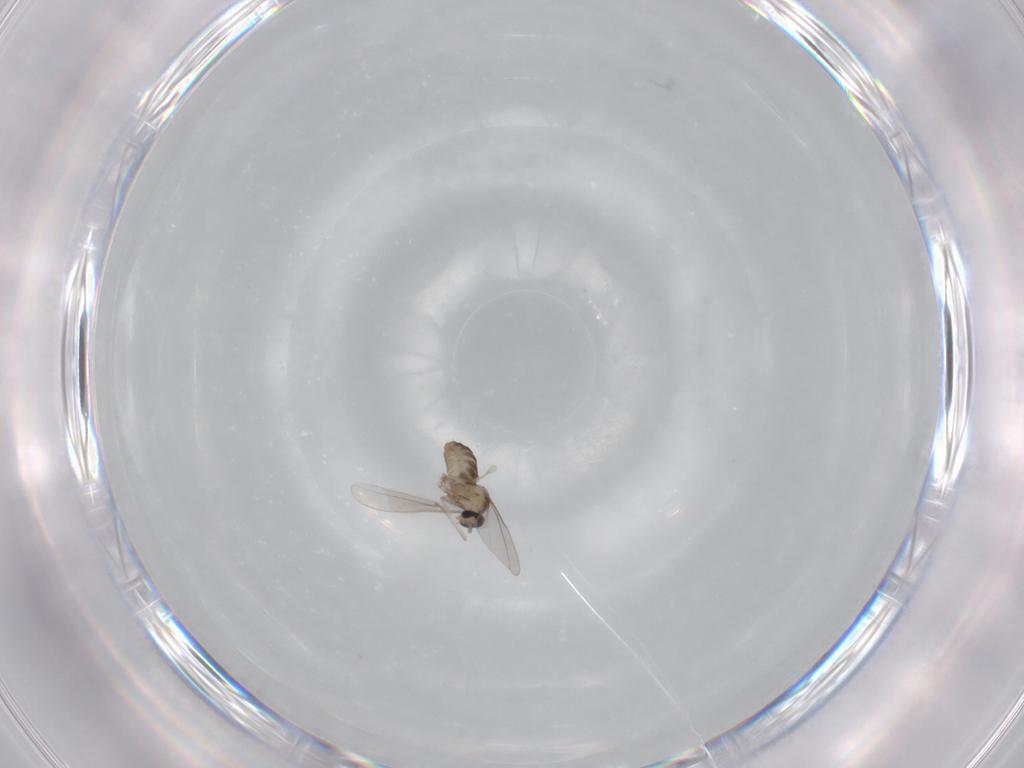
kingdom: Animalia
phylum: Arthropoda
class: Insecta
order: Diptera
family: Cecidomyiidae
